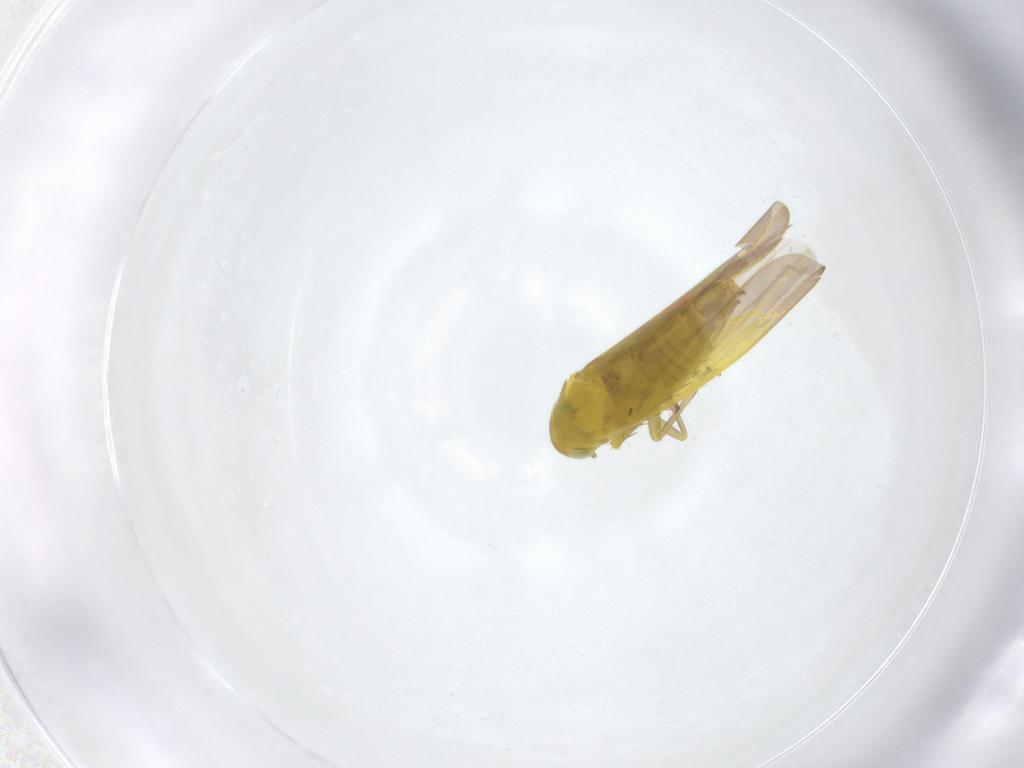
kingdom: Animalia
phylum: Arthropoda
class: Insecta
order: Hemiptera
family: Cicadellidae
